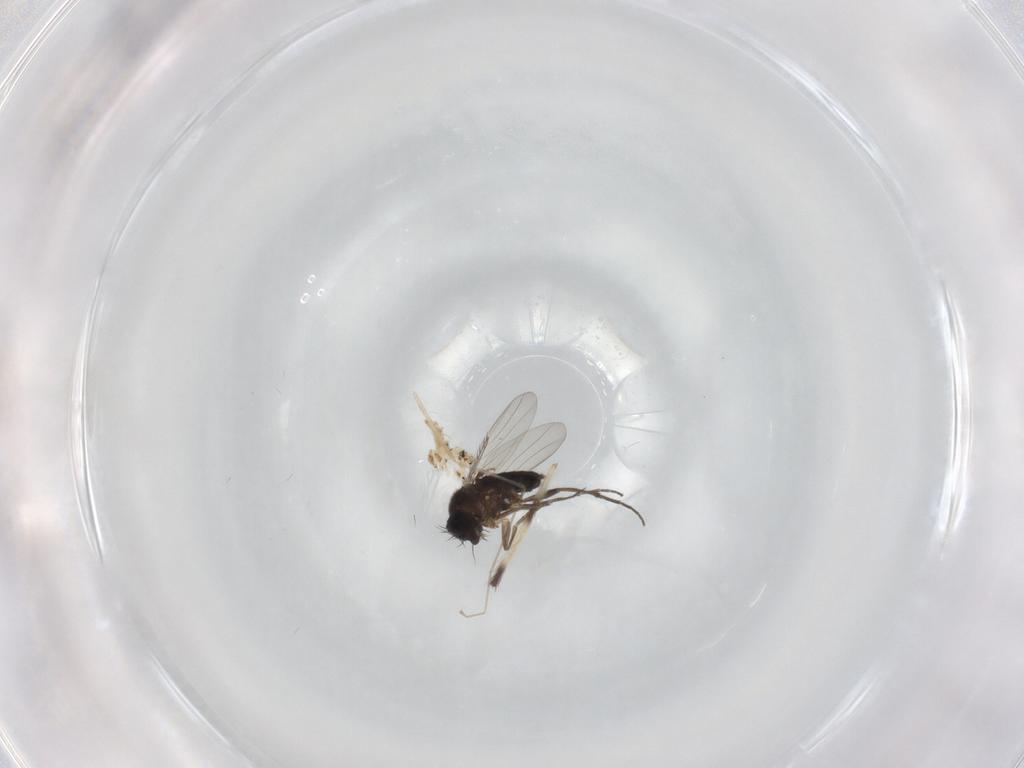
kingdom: Animalia
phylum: Arthropoda
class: Insecta
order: Diptera
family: Phoridae
